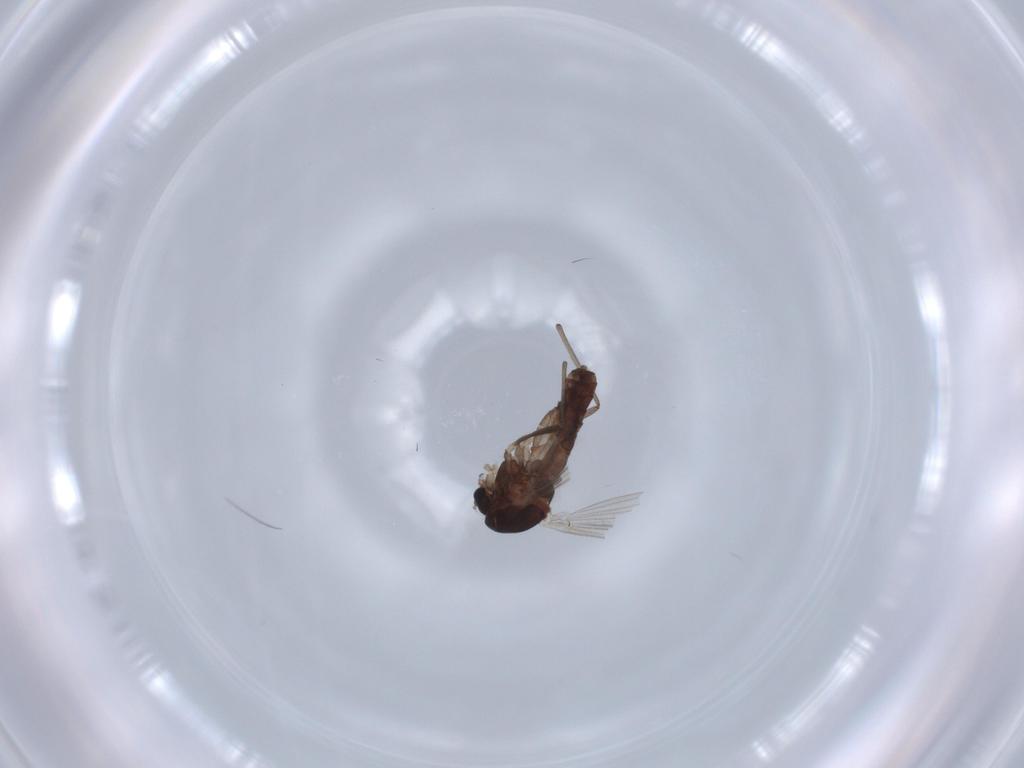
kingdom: Animalia
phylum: Arthropoda
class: Insecta
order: Diptera
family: Chironomidae
